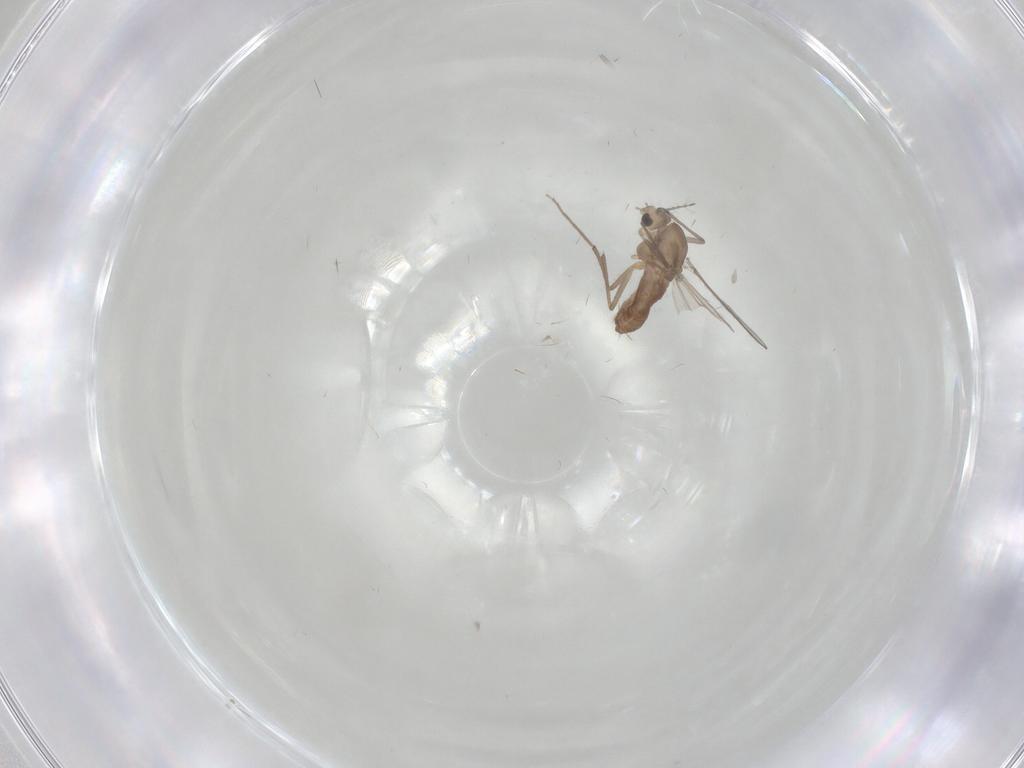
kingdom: Animalia
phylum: Arthropoda
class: Insecta
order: Diptera
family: Chironomidae
